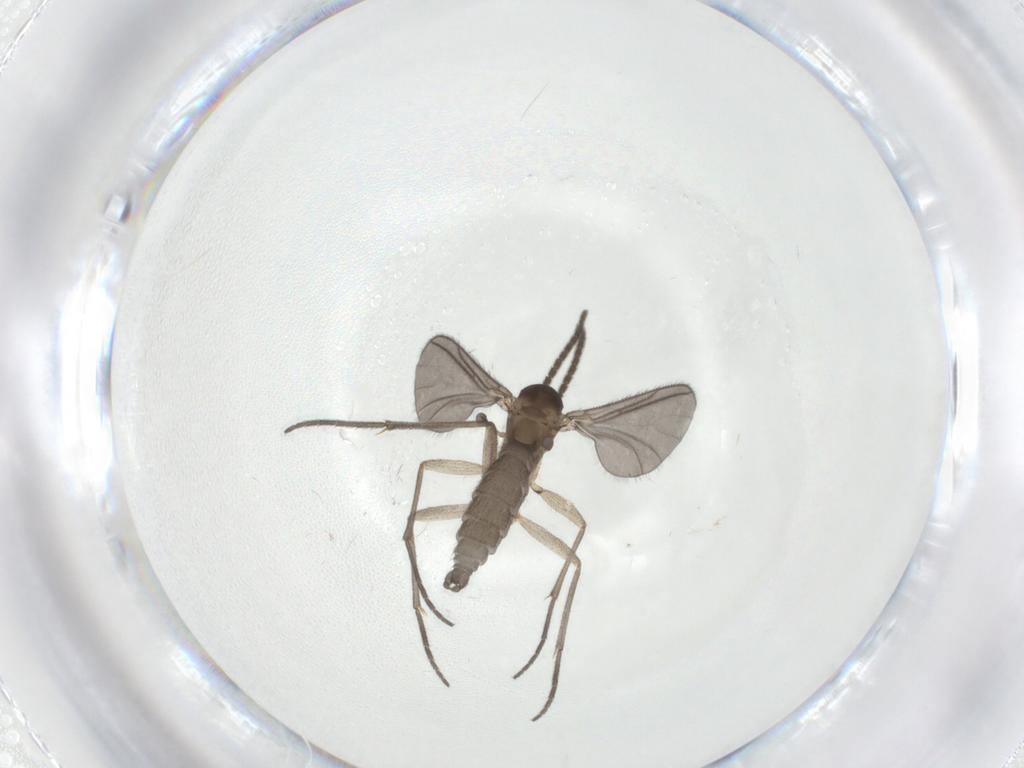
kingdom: Animalia
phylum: Arthropoda
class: Insecta
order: Diptera
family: Sciaridae
